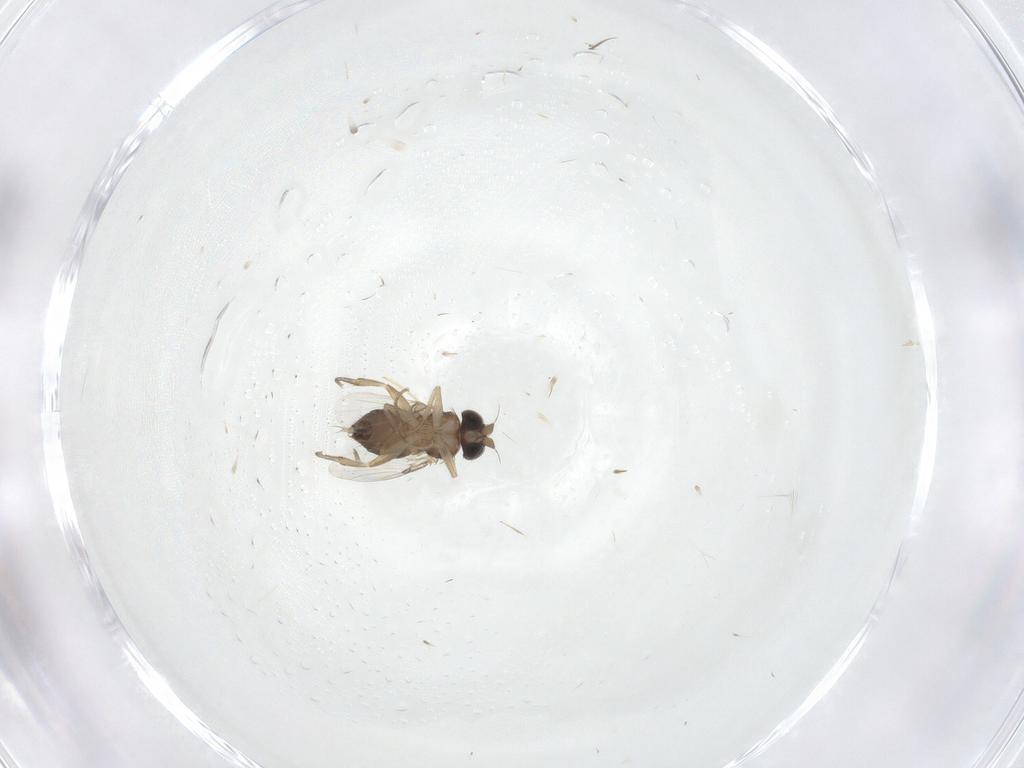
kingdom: Animalia
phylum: Arthropoda
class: Insecta
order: Diptera
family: Phoridae
